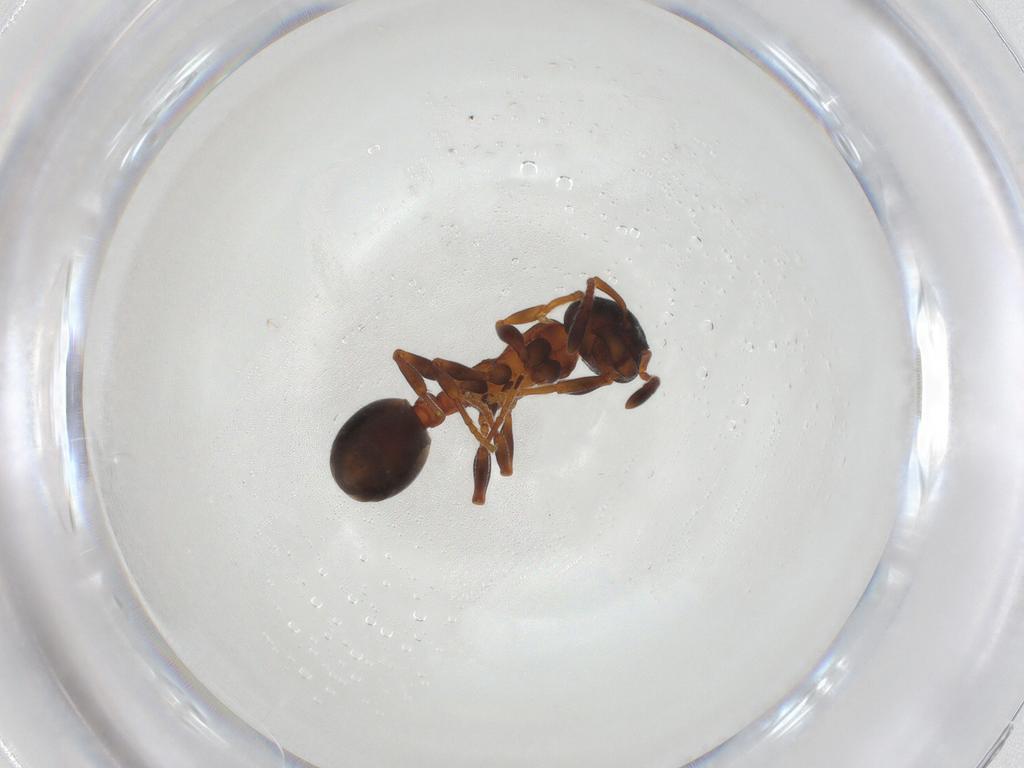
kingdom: Animalia
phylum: Arthropoda
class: Insecta
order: Hymenoptera
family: Formicidae
